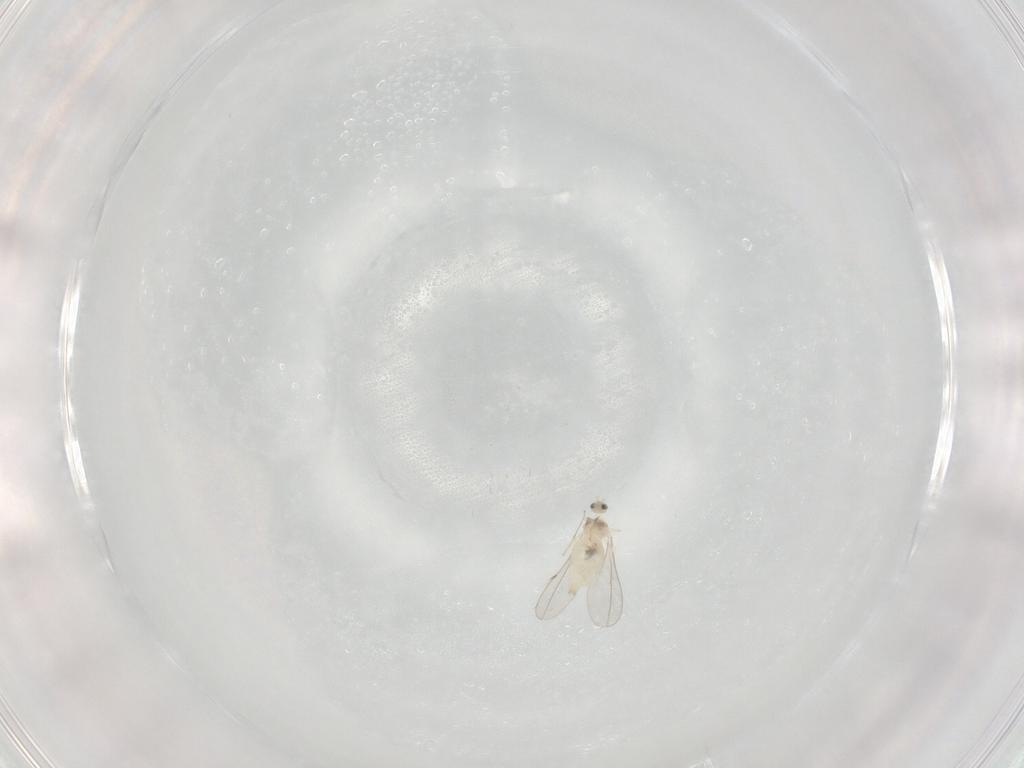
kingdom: Animalia
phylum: Arthropoda
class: Insecta
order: Diptera
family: Cecidomyiidae
